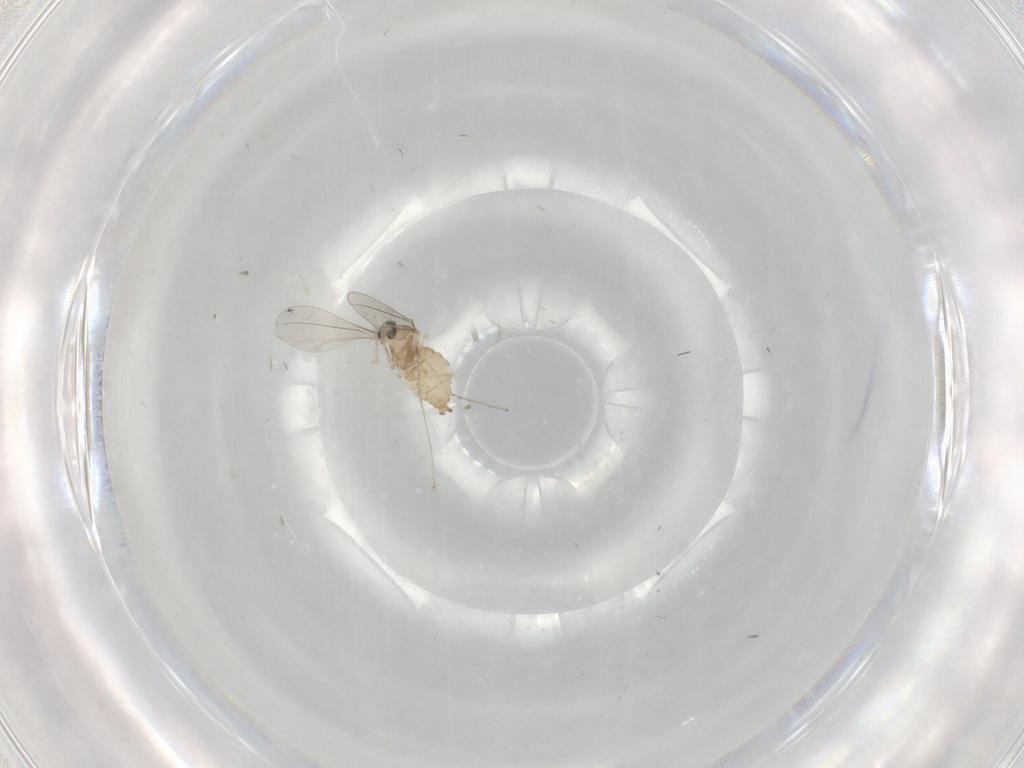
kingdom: Animalia
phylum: Arthropoda
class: Insecta
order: Diptera
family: Cecidomyiidae
